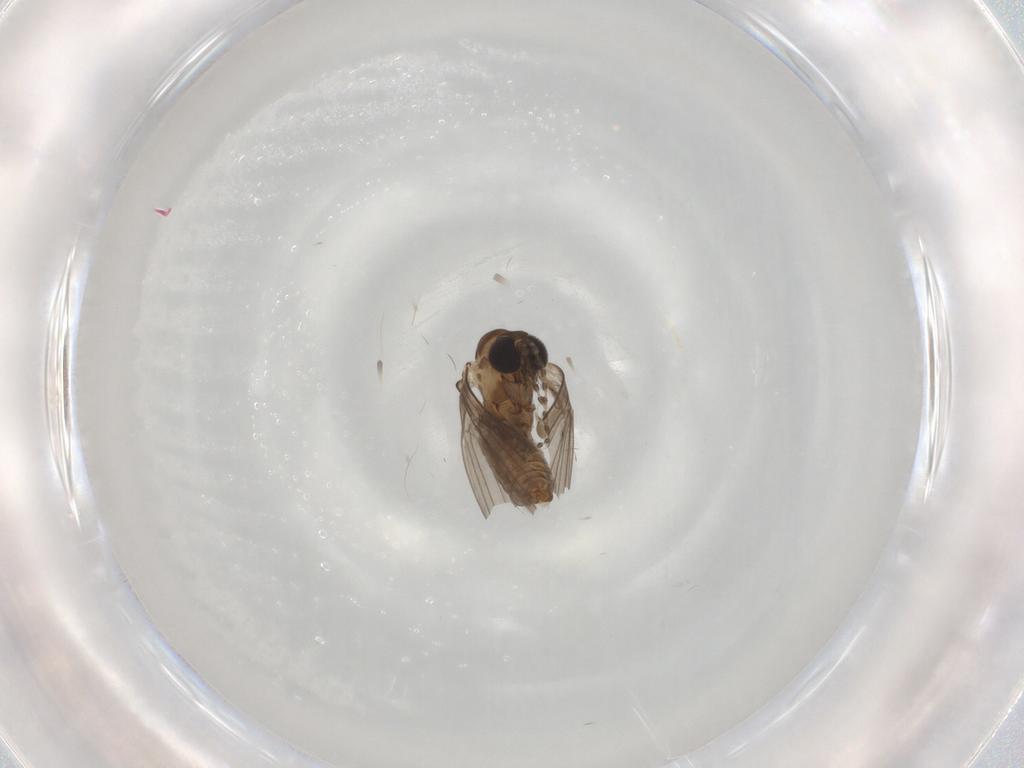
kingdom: Animalia
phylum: Arthropoda
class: Insecta
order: Diptera
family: Chironomidae
